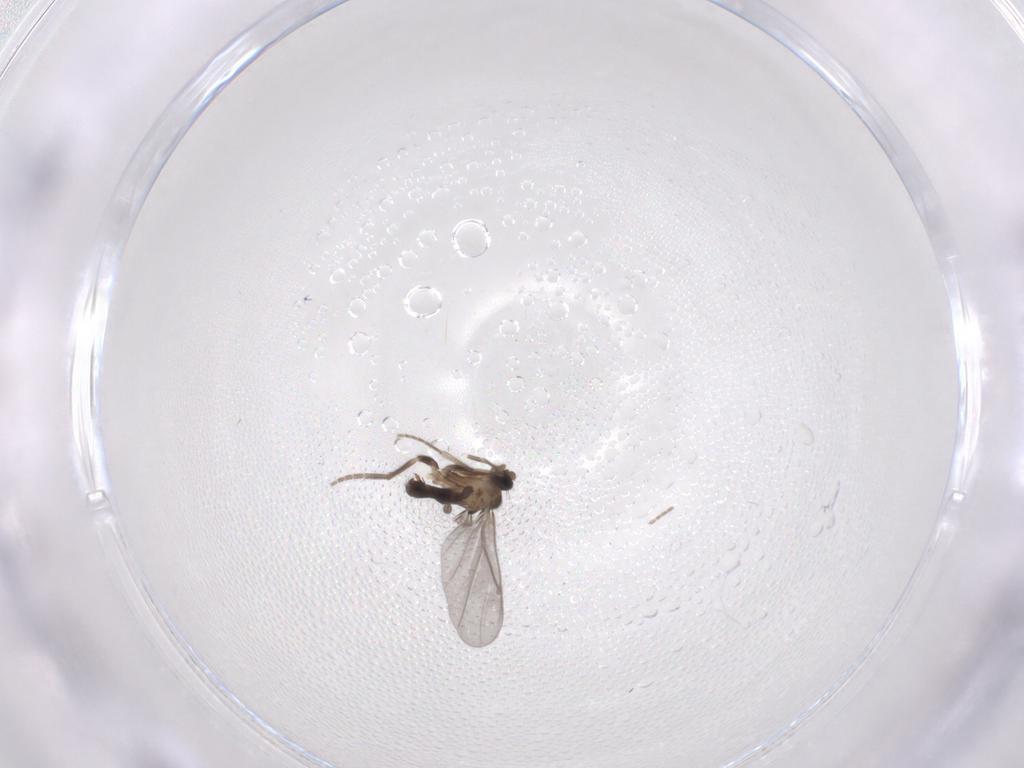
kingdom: Animalia
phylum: Arthropoda
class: Insecta
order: Diptera
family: Phoridae
